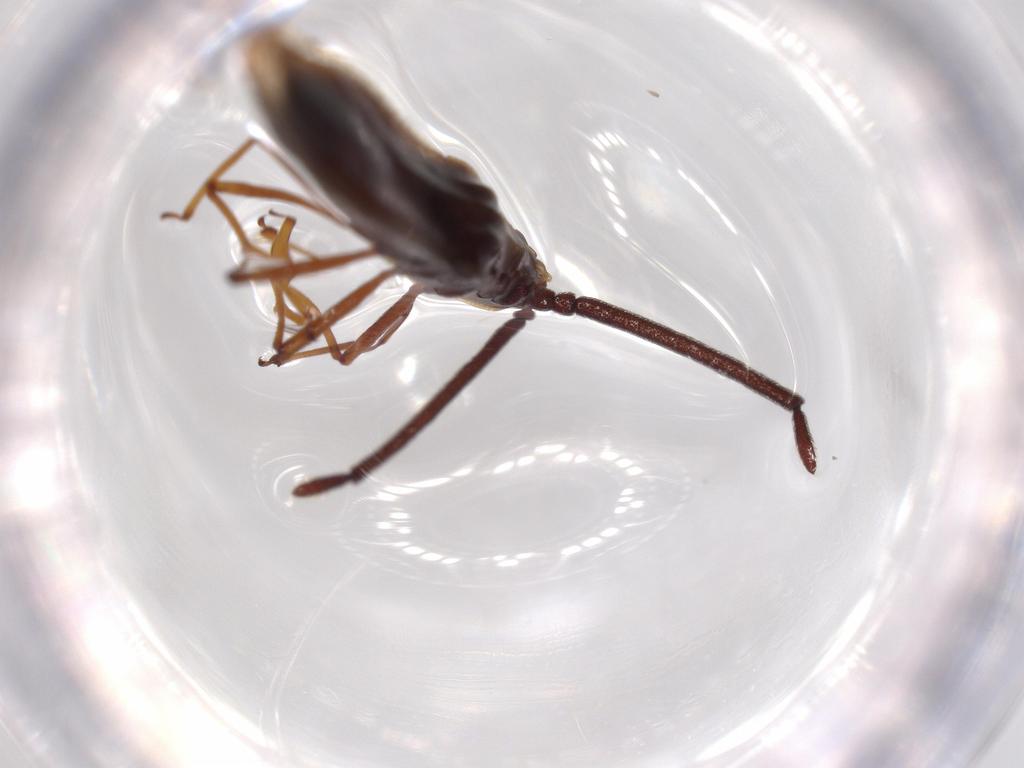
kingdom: Animalia
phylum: Arthropoda
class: Insecta
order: Hemiptera
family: Tingidae
